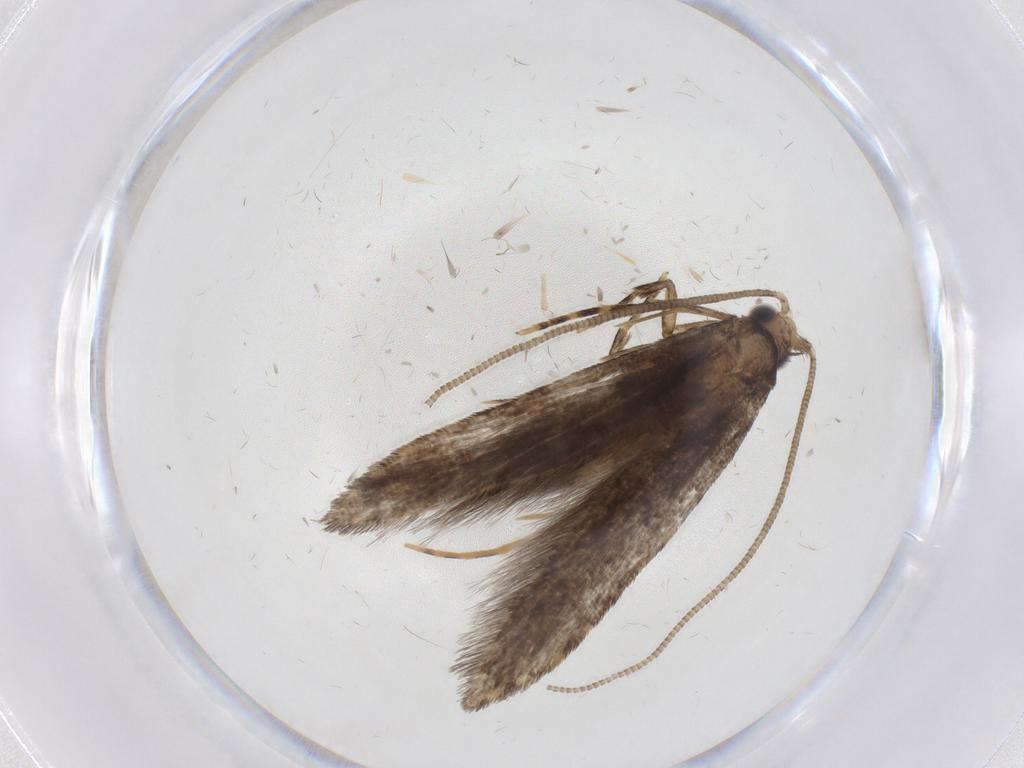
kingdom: Animalia
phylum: Arthropoda
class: Insecta
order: Lepidoptera
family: Tineidae
